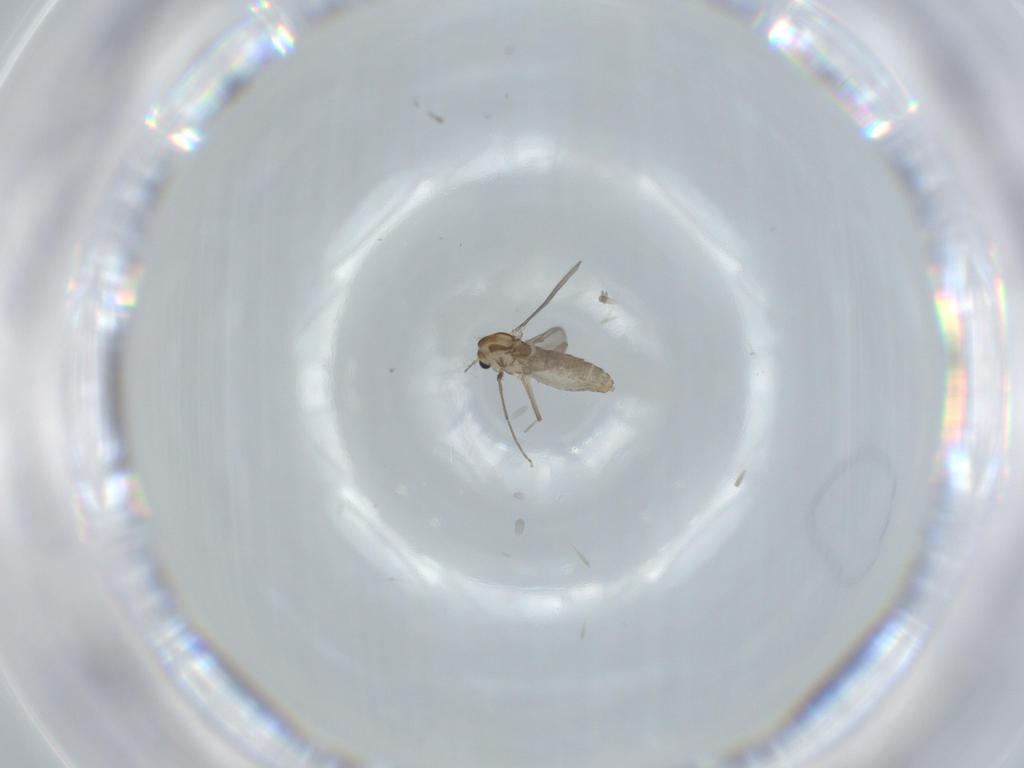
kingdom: Animalia
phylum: Arthropoda
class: Insecta
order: Diptera
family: Chironomidae
